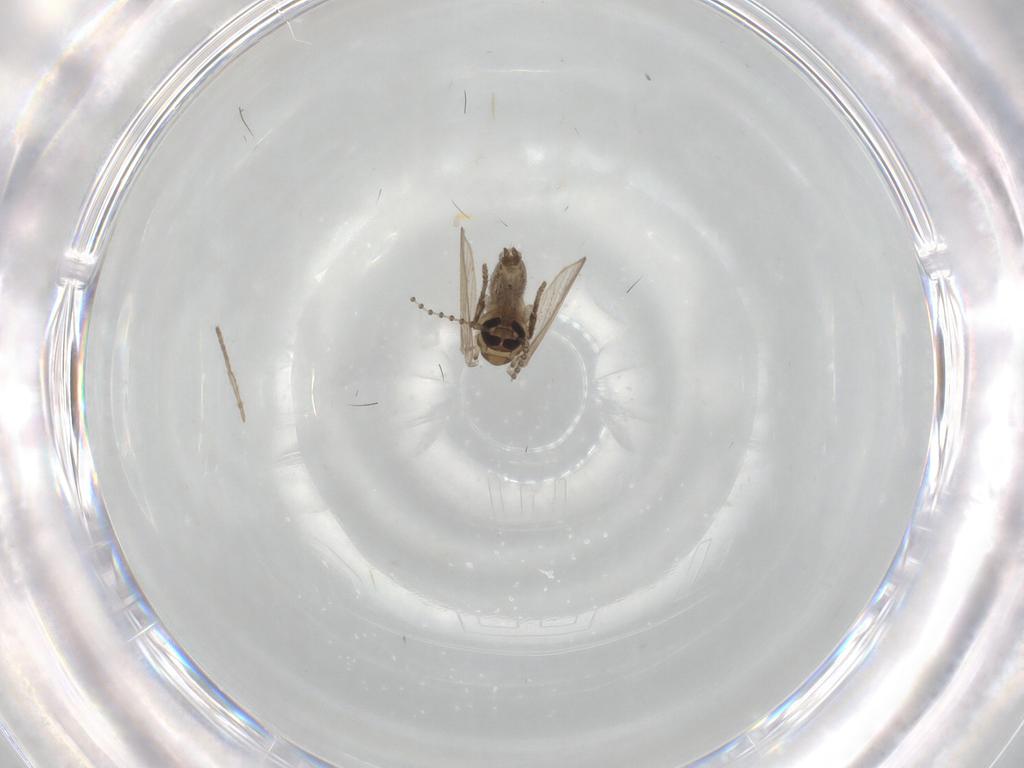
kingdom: Animalia
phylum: Arthropoda
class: Insecta
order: Diptera
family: Psychodidae
